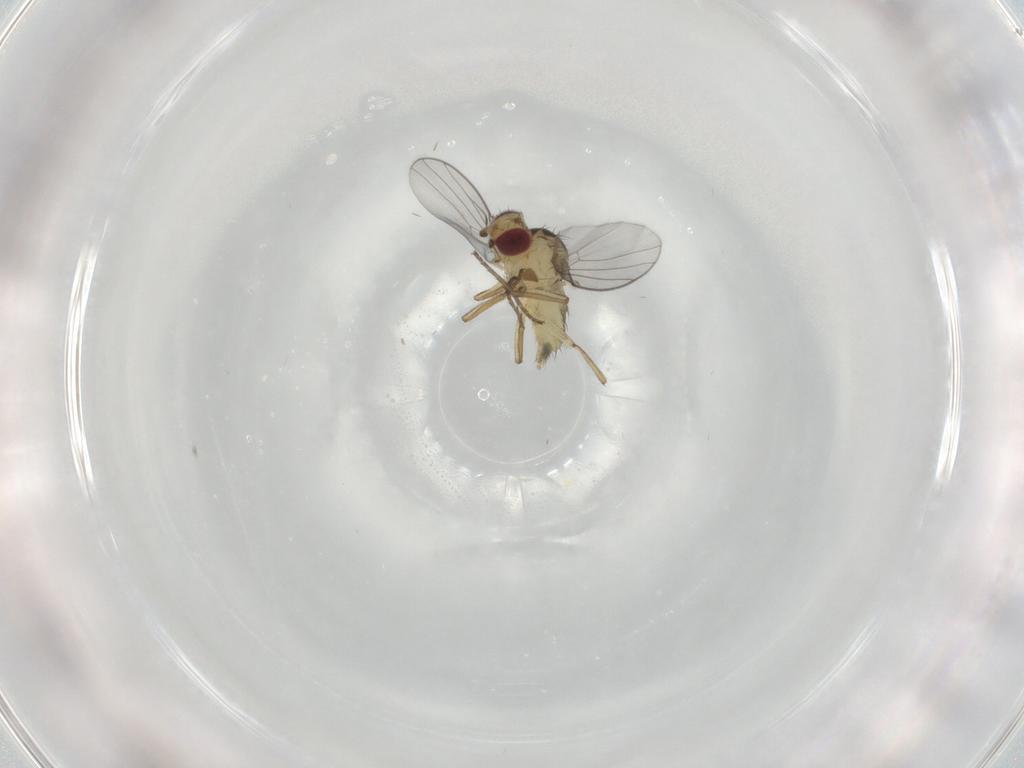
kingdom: Animalia
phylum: Arthropoda
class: Insecta
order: Diptera
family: Agromyzidae
